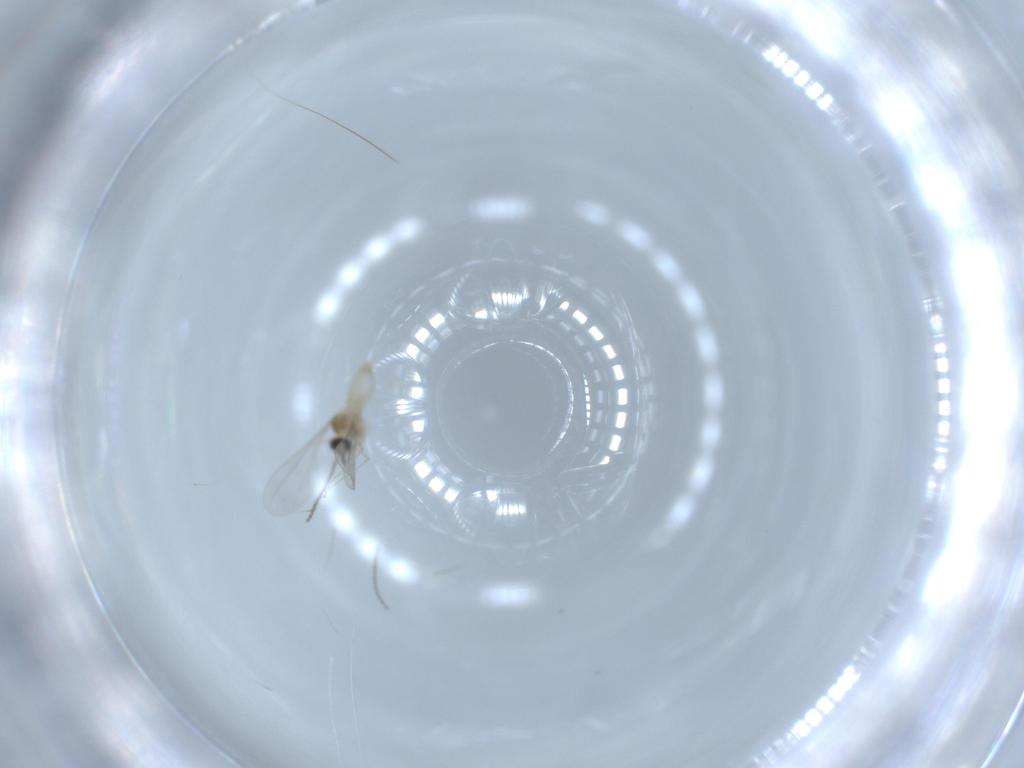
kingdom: Animalia
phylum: Arthropoda
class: Insecta
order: Diptera
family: Cecidomyiidae
